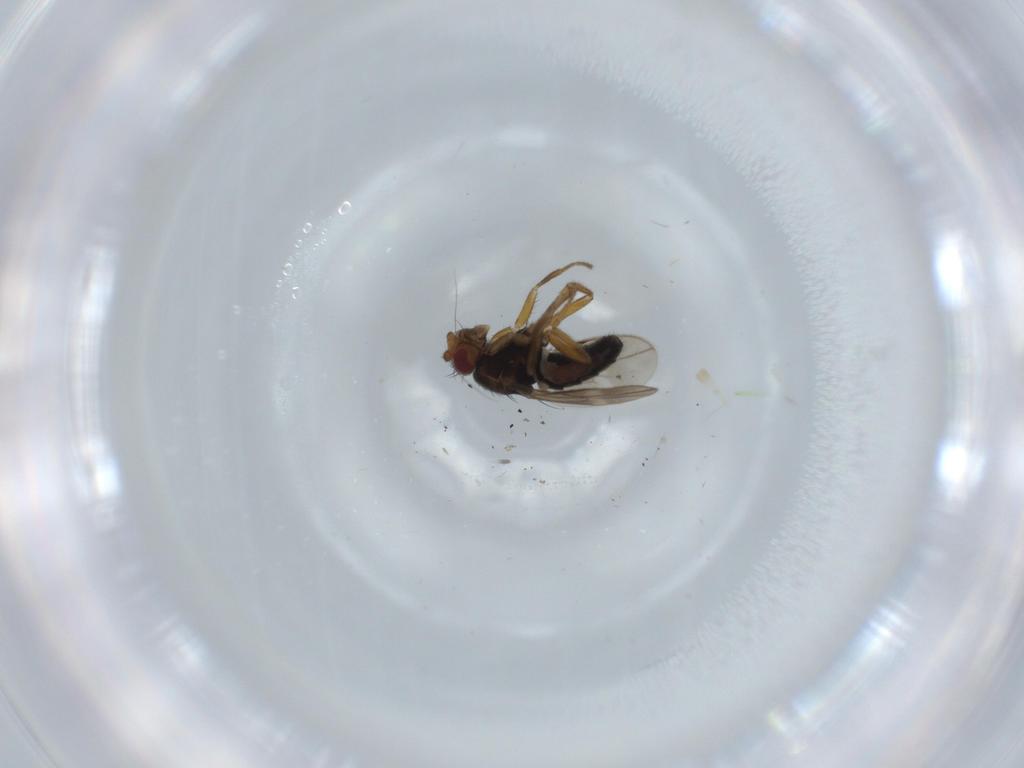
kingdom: Animalia
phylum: Arthropoda
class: Insecta
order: Diptera
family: Sphaeroceridae
